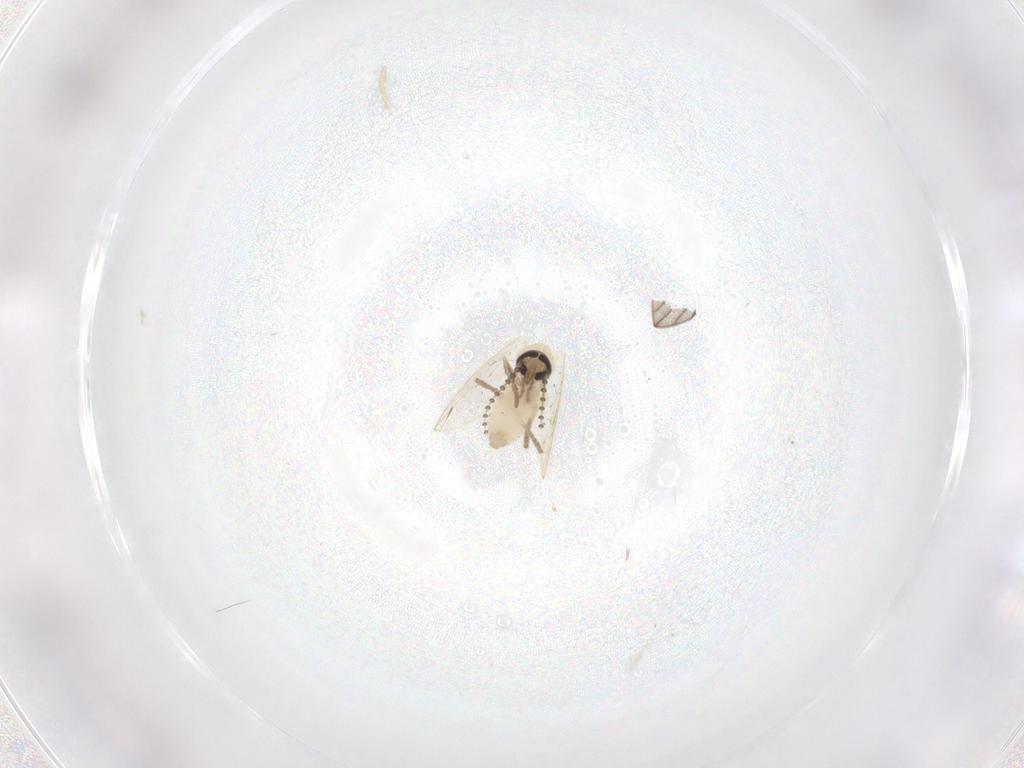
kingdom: Animalia
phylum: Arthropoda
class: Insecta
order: Diptera
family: Psychodidae
